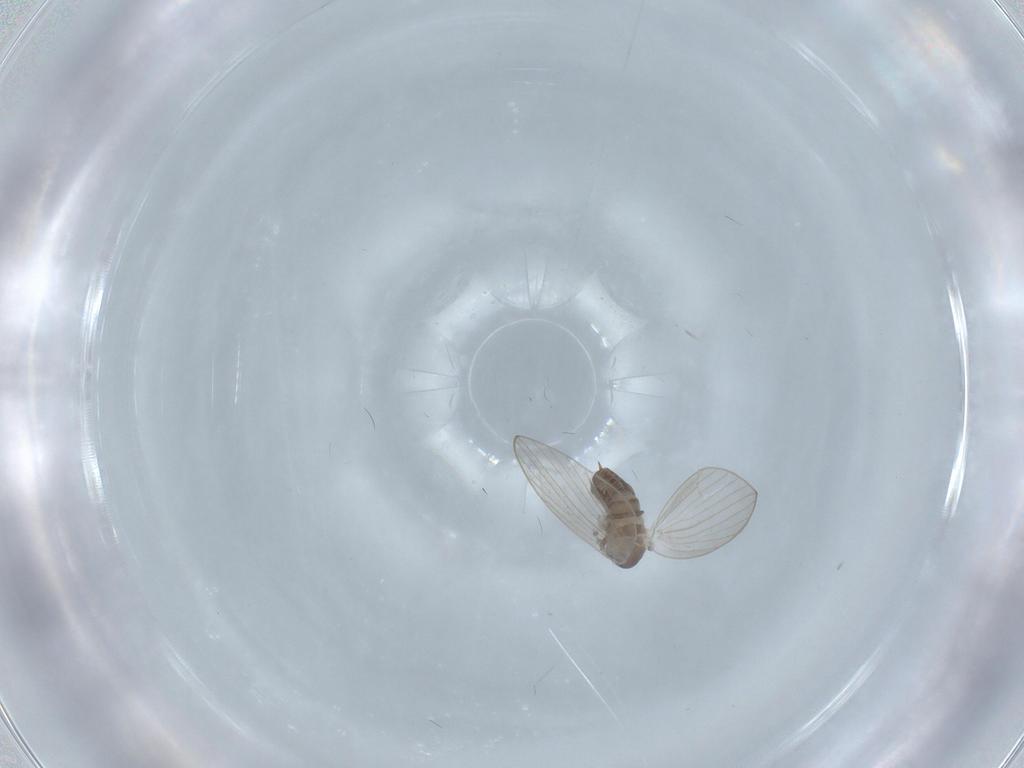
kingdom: Animalia
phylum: Arthropoda
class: Insecta
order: Diptera
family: Psychodidae
